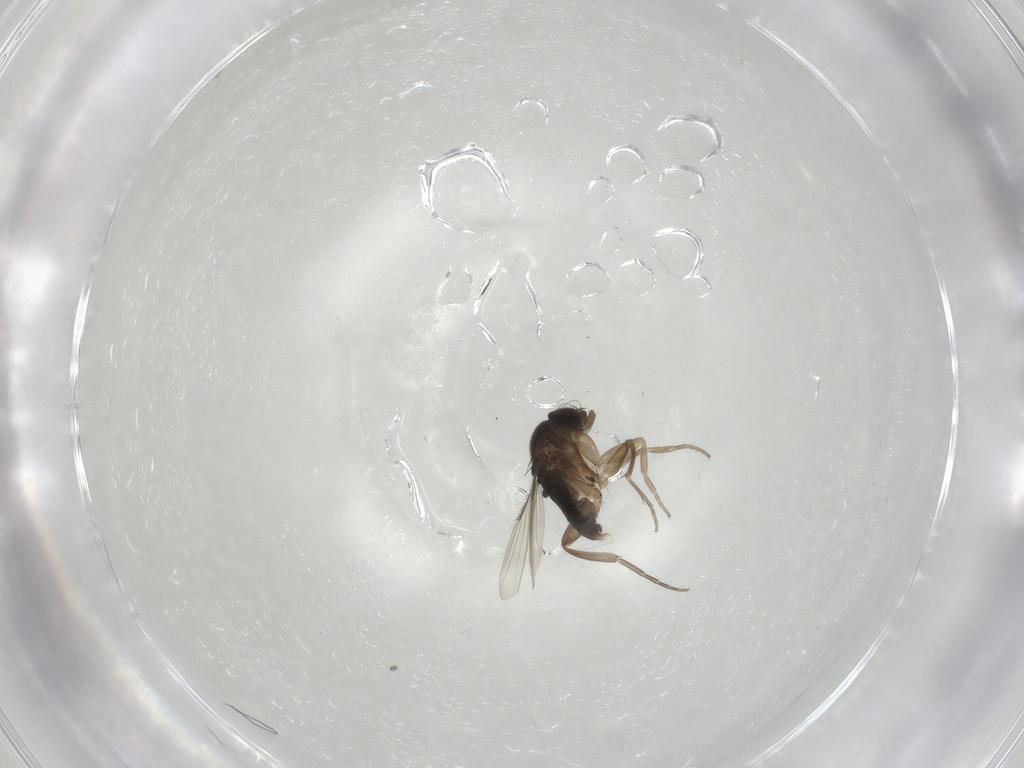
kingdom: Animalia
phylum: Arthropoda
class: Insecta
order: Diptera
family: Phoridae
